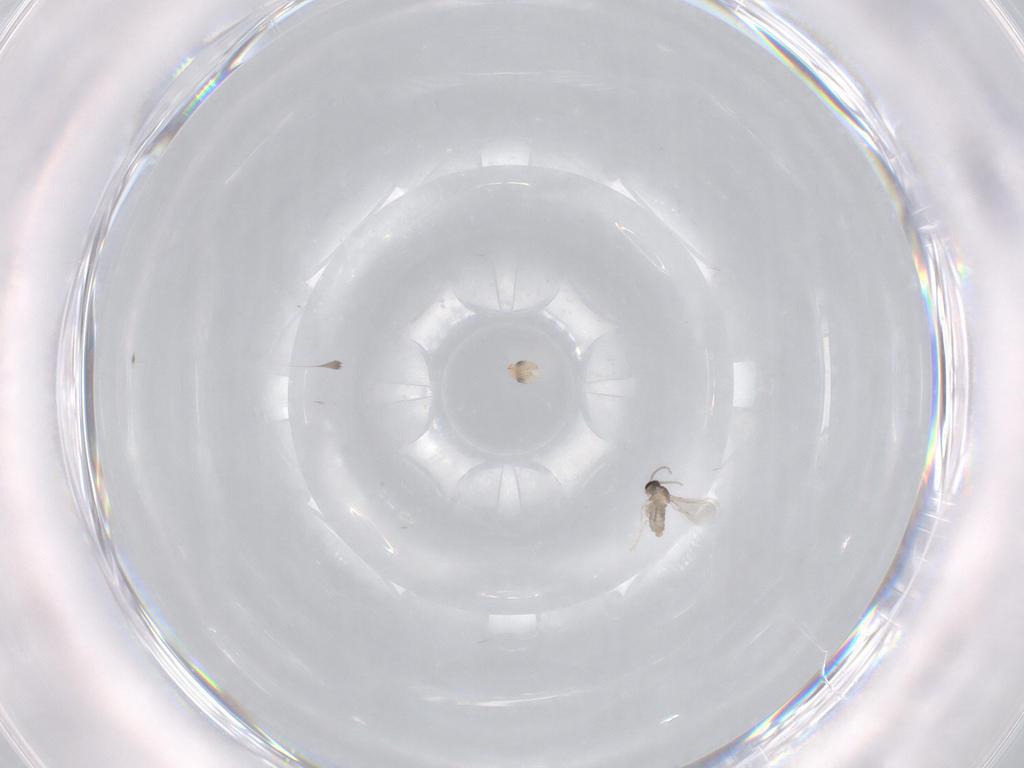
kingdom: Animalia
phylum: Arthropoda
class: Insecta
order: Diptera
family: Cecidomyiidae
